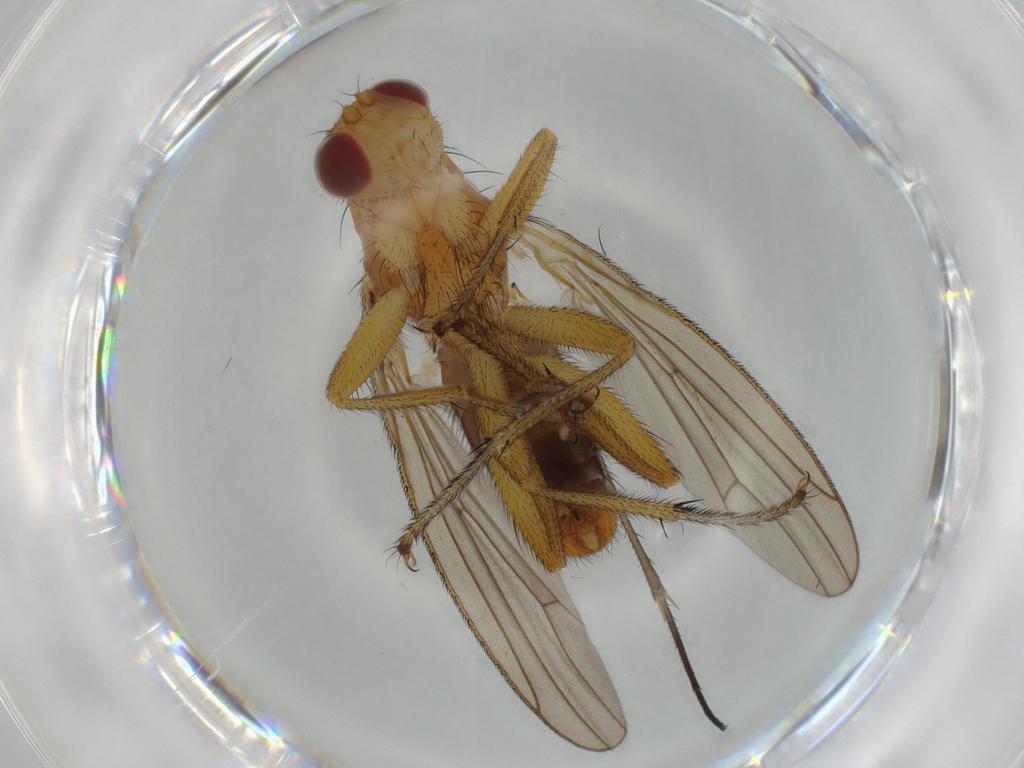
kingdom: Animalia
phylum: Arthropoda
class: Insecta
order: Diptera
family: Heleomyzidae
